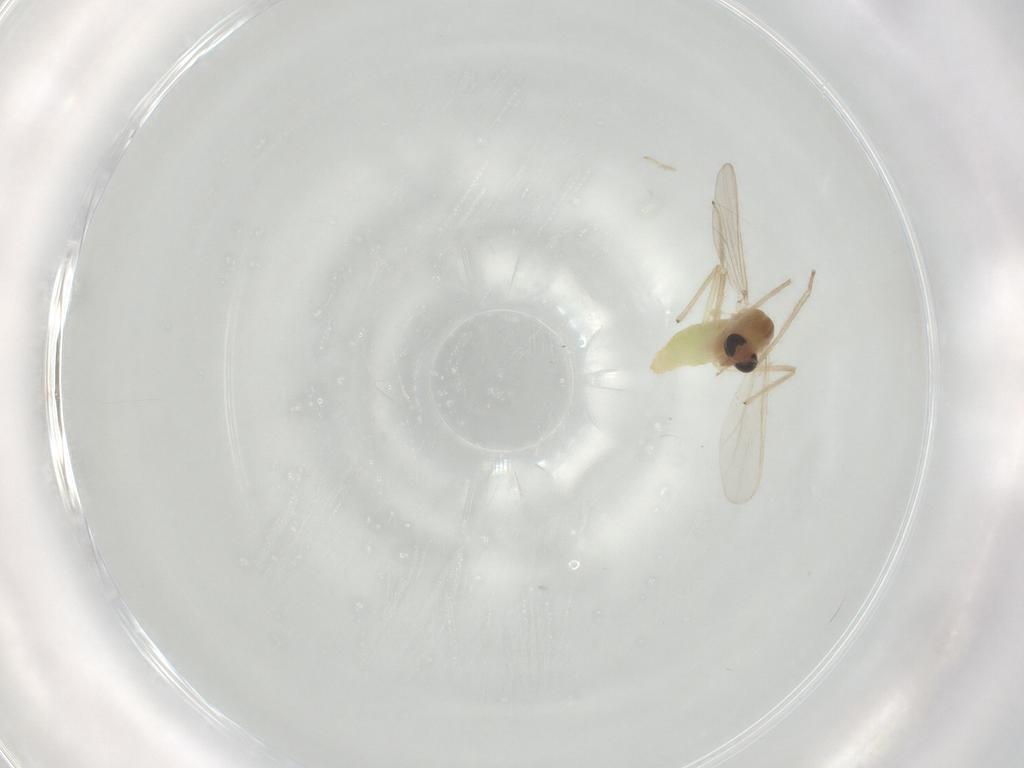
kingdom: Animalia
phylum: Arthropoda
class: Insecta
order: Diptera
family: Chironomidae
